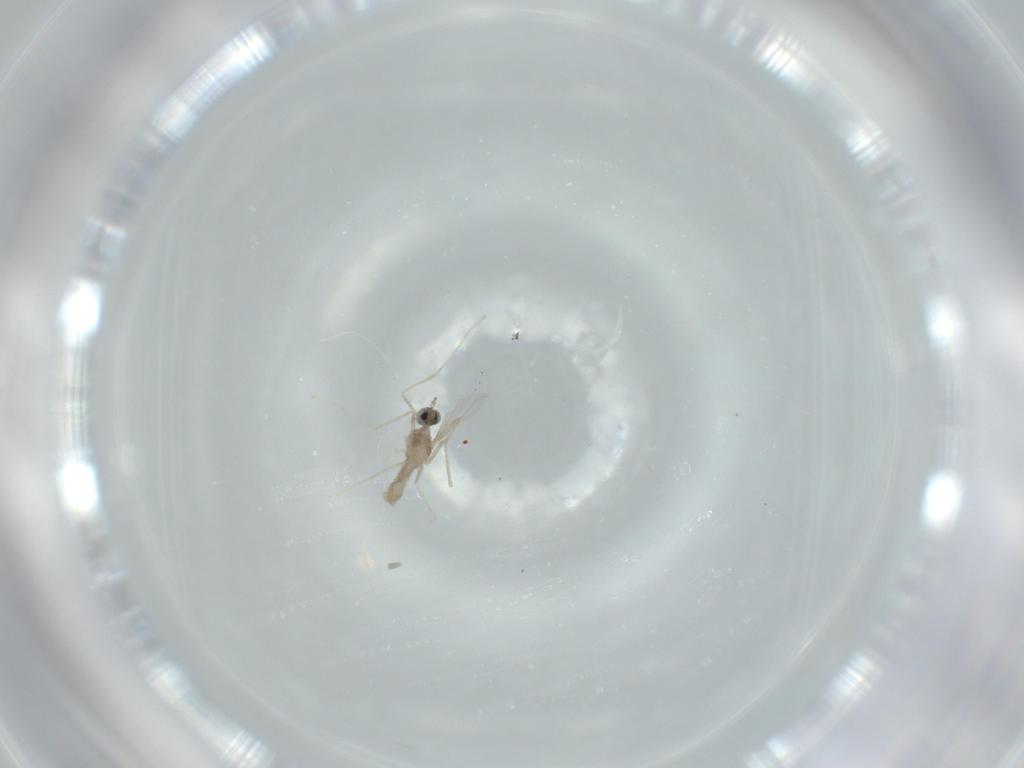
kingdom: Animalia
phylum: Arthropoda
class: Insecta
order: Diptera
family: Cecidomyiidae
